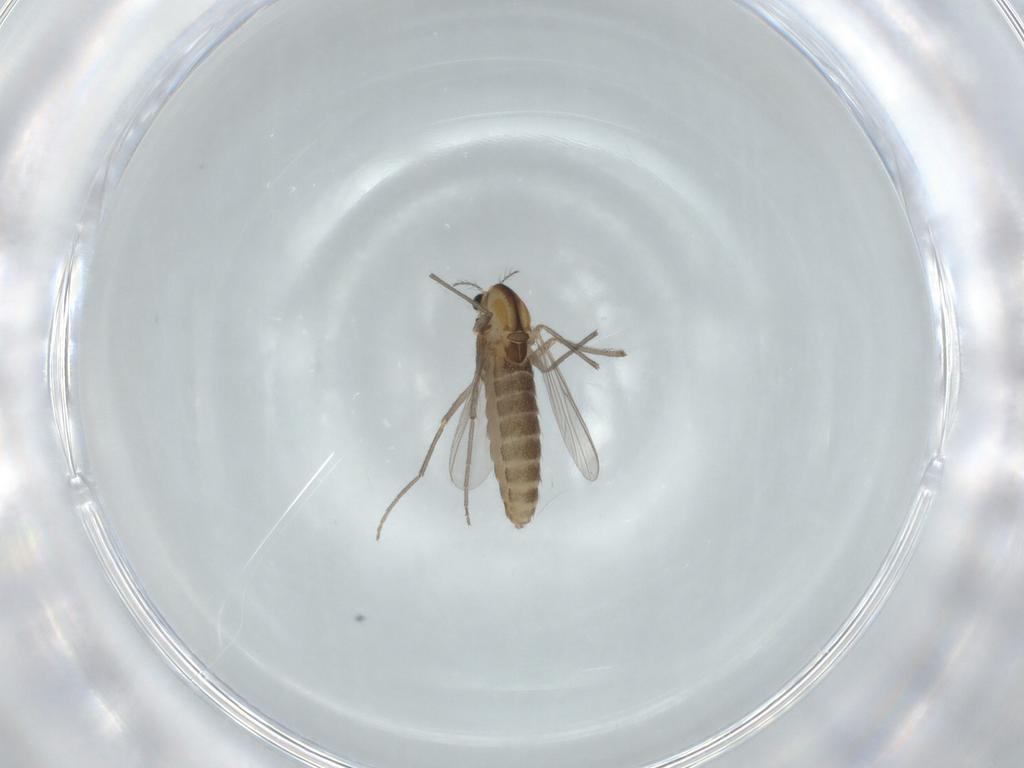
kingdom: Animalia
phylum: Arthropoda
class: Insecta
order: Diptera
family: Chironomidae
